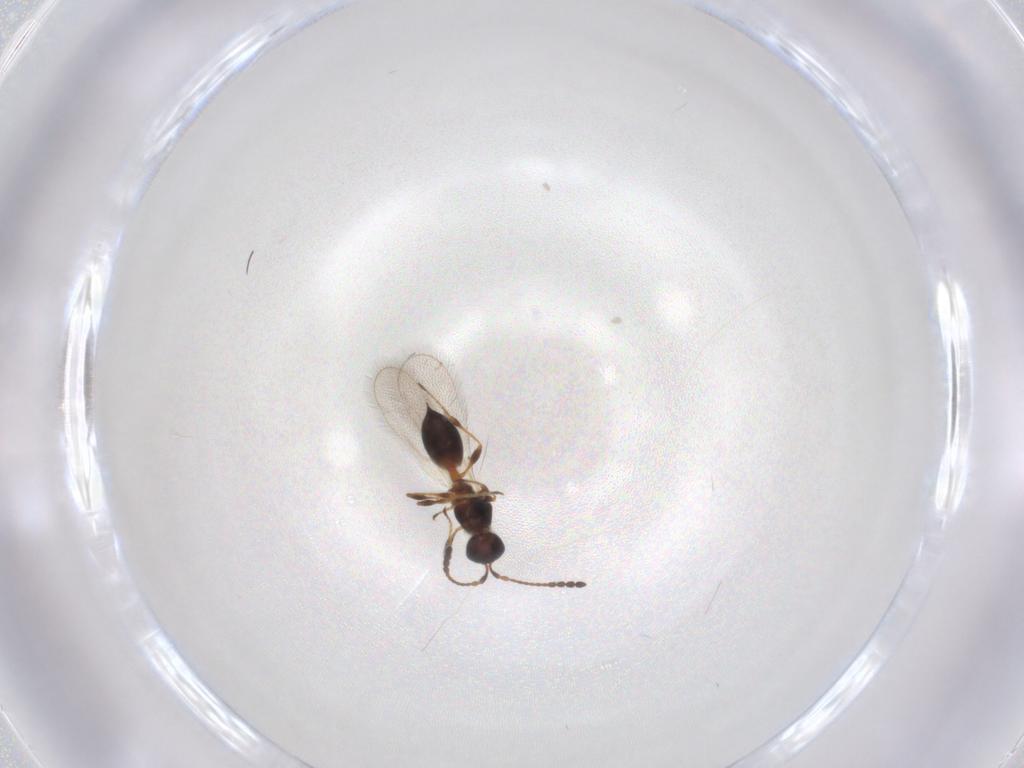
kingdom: Animalia
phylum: Arthropoda
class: Insecta
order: Hymenoptera
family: Diapriidae
